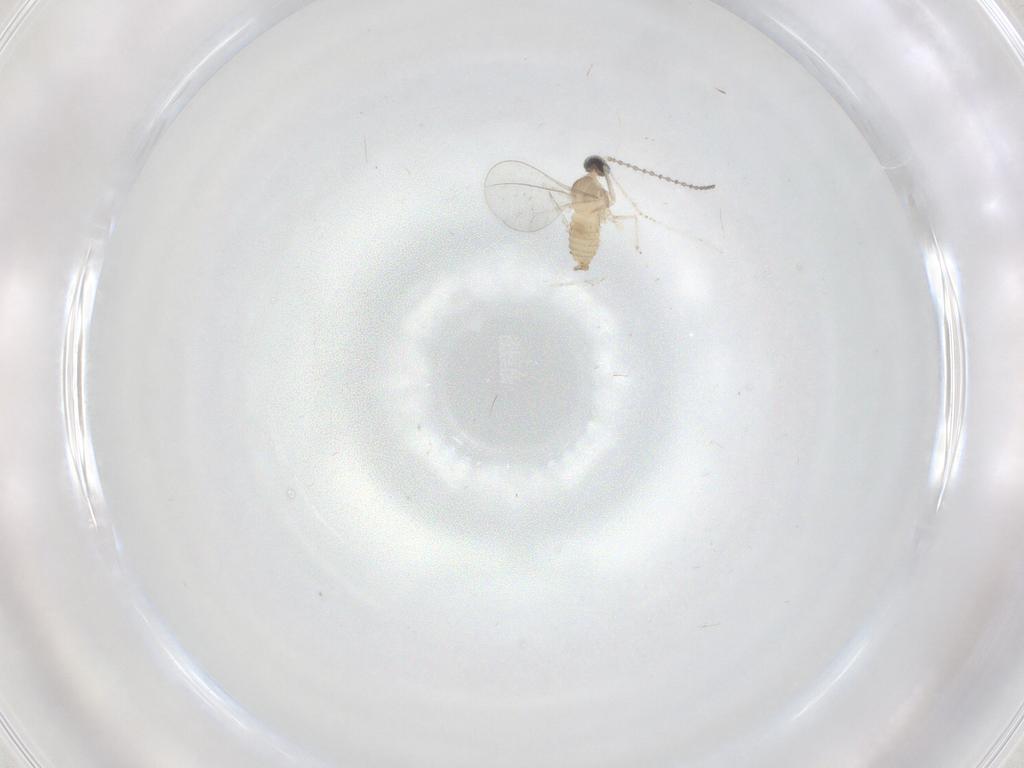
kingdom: Animalia
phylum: Arthropoda
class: Insecta
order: Diptera
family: Cecidomyiidae
